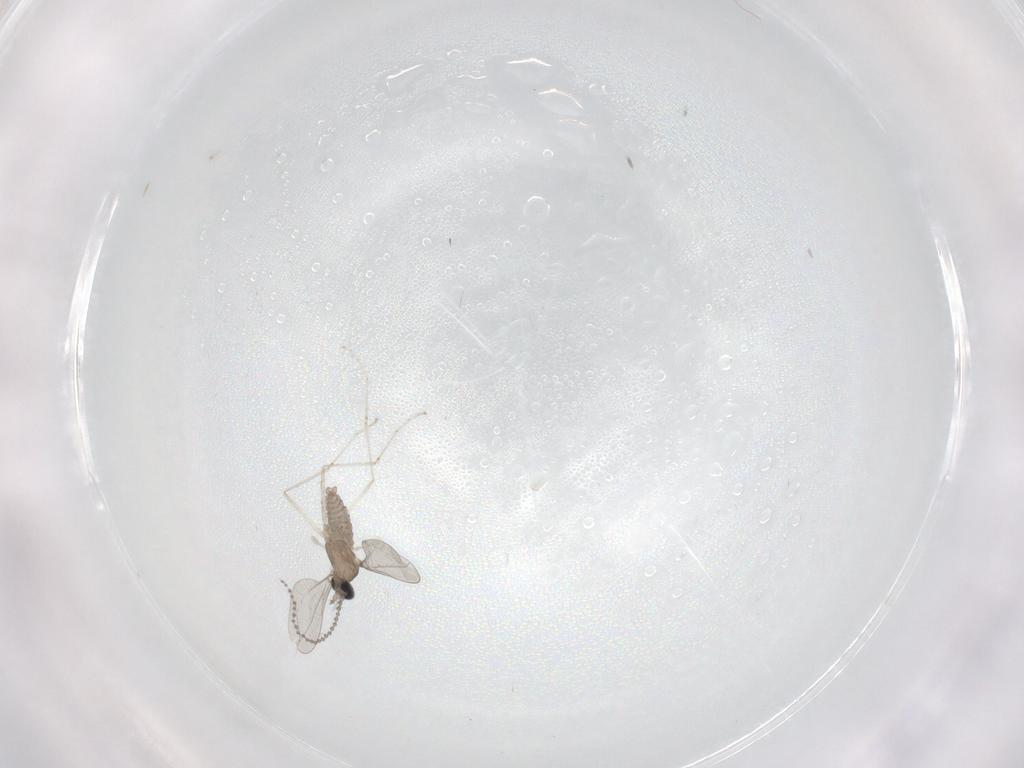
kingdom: Animalia
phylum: Arthropoda
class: Insecta
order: Diptera
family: Cecidomyiidae
